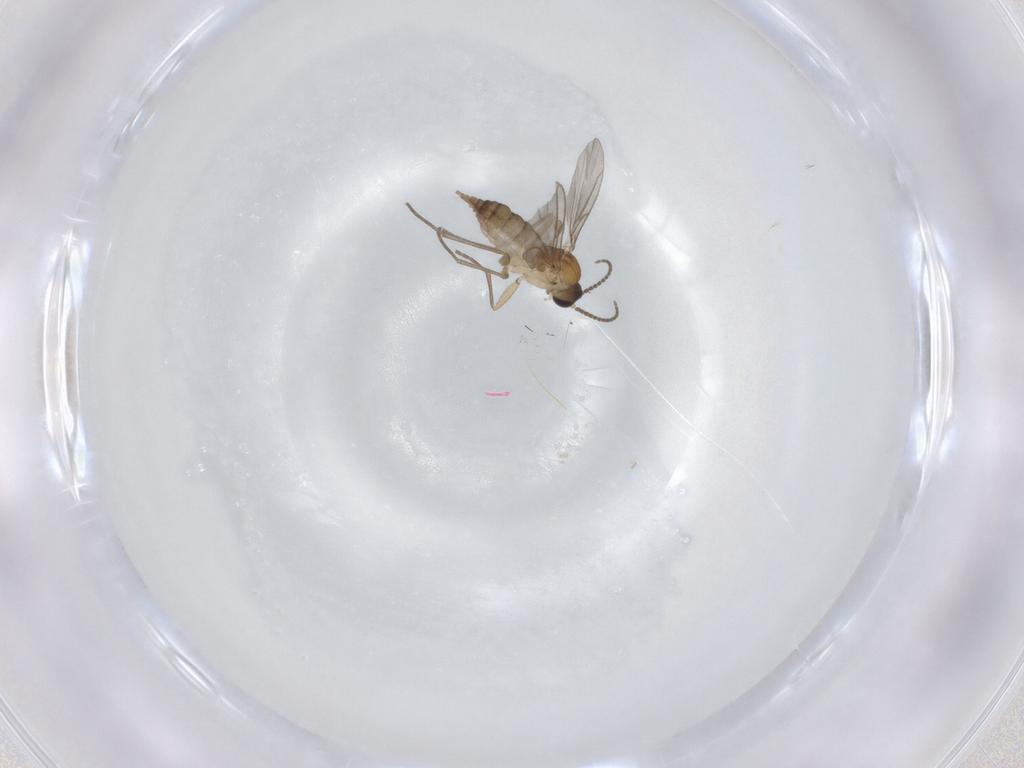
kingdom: Animalia
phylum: Arthropoda
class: Insecta
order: Diptera
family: Sciaridae
